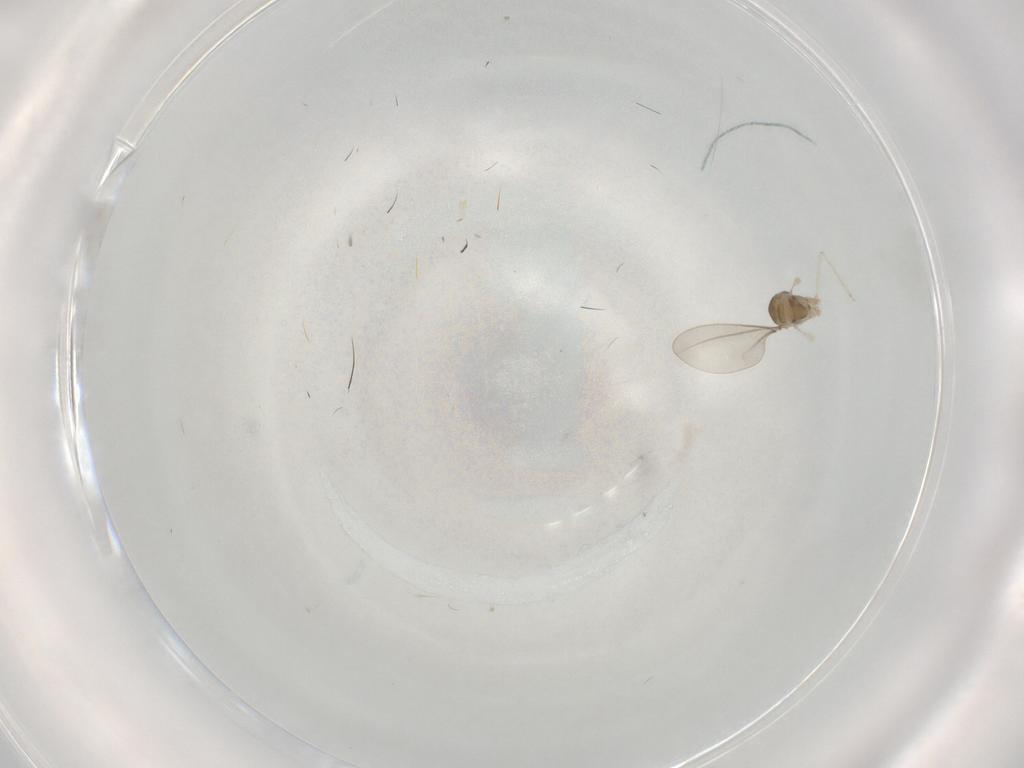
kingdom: Animalia
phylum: Arthropoda
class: Insecta
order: Diptera
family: Cecidomyiidae
